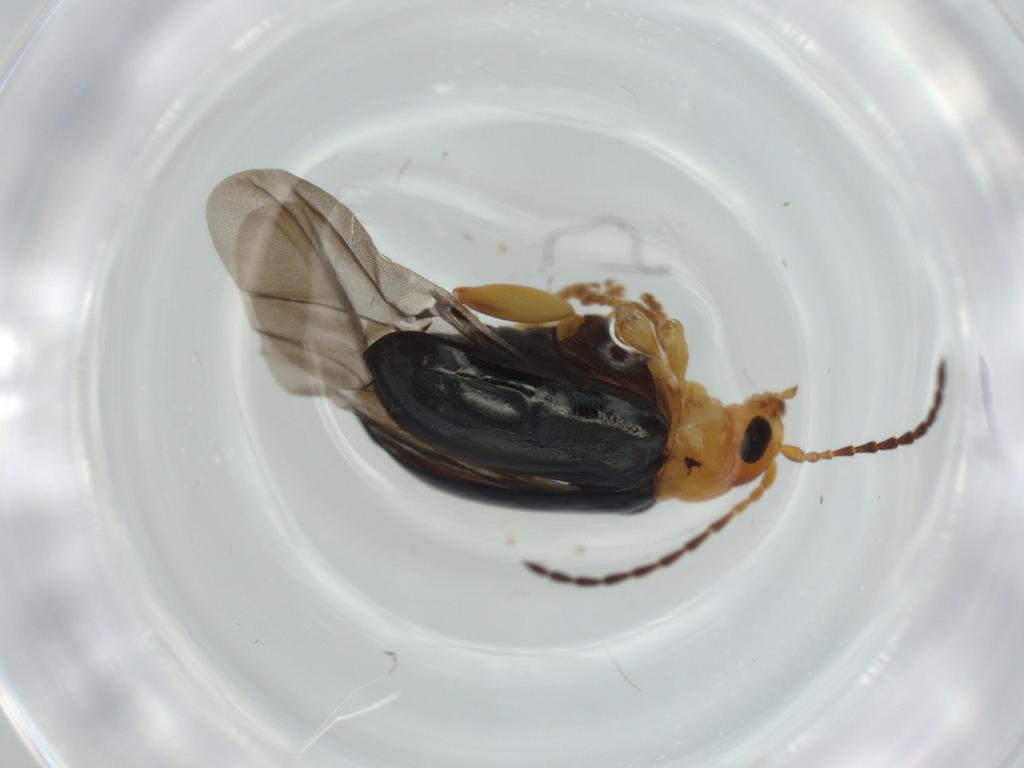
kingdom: Animalia
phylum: Arthropoda
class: Insecta
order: Coleoptera
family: Chrysomelidae
